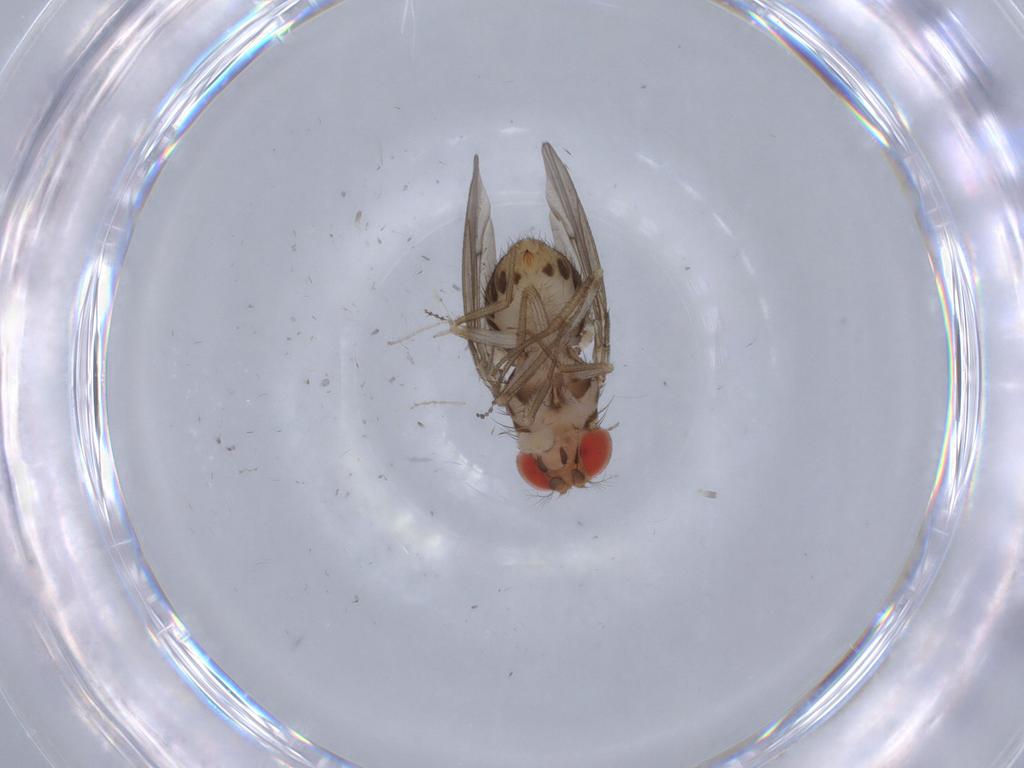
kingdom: Animalia
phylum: Arthropoda
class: Insecta
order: Diptera
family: Drosophilidae
